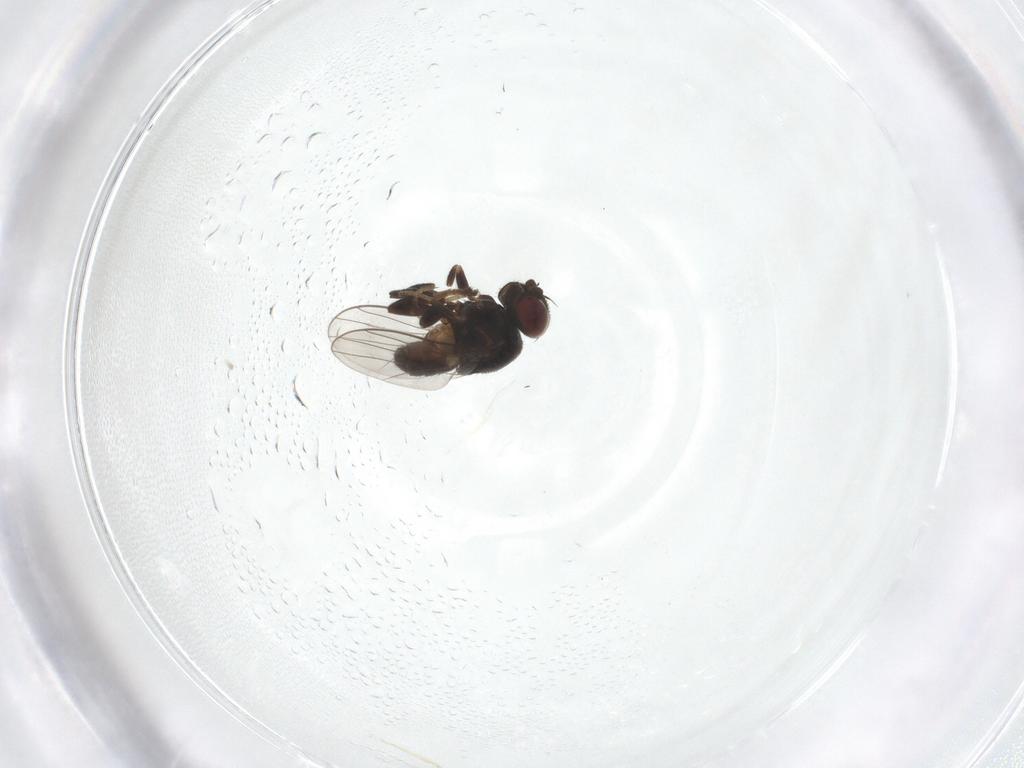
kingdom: Animalia
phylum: Arthropoda
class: Insecta
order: Diptera
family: Chloropidae
